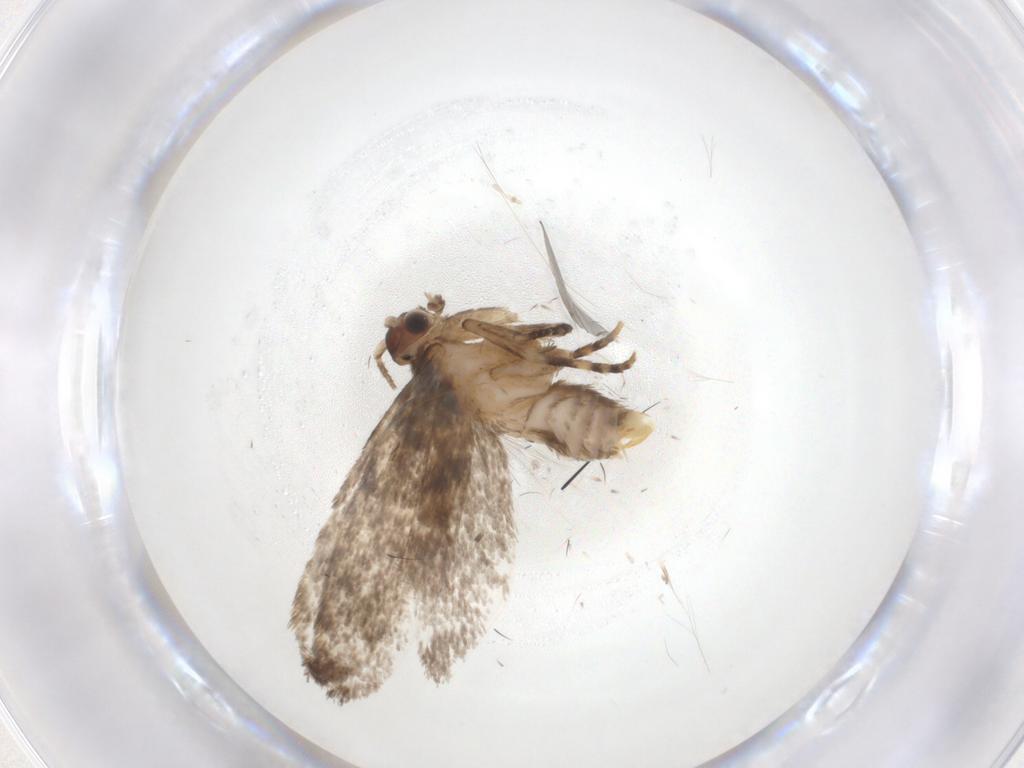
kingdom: Animalia
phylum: Arthropoda
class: Insecta
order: Lepidoptera
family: Dryadaulidae
